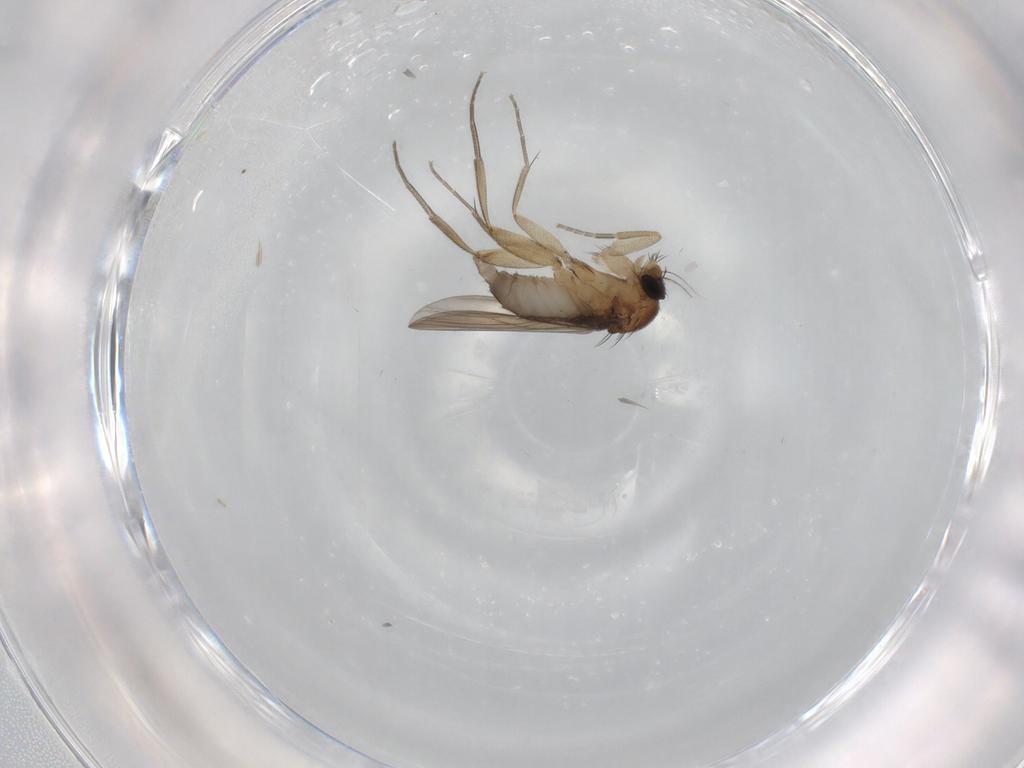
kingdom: Animalia
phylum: Arthropoda
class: Insecta
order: Diptera
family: Phoridae
